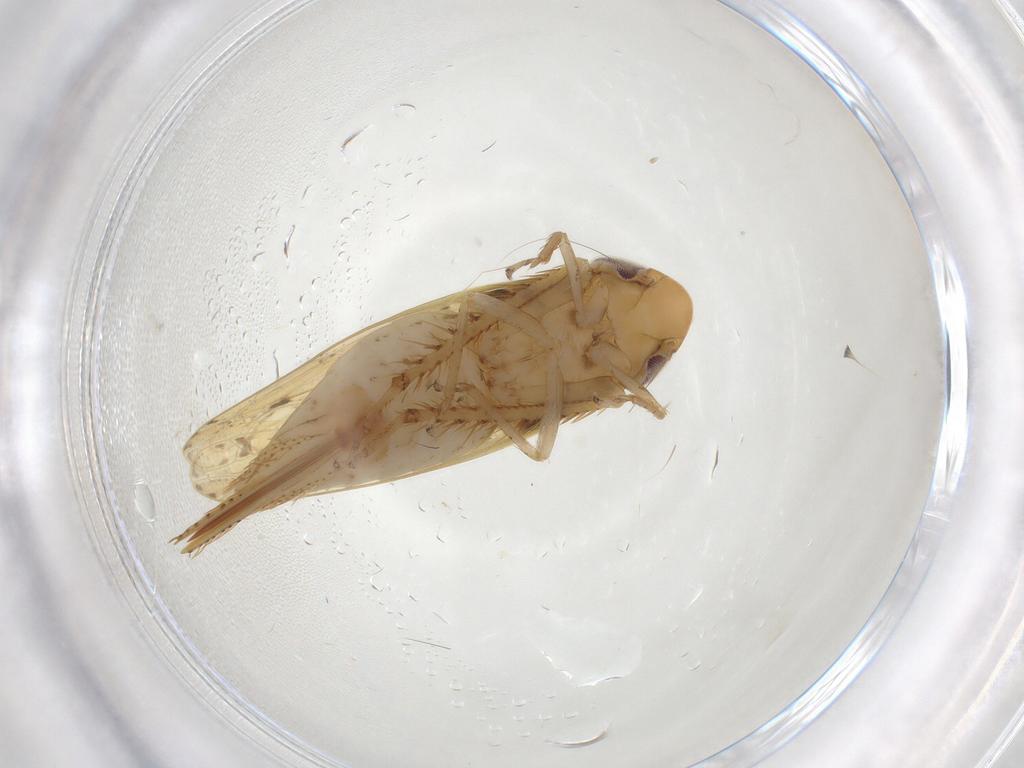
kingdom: Animalia
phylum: Arthropoda
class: Insecta
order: Hemiptera
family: Cicadellidae
